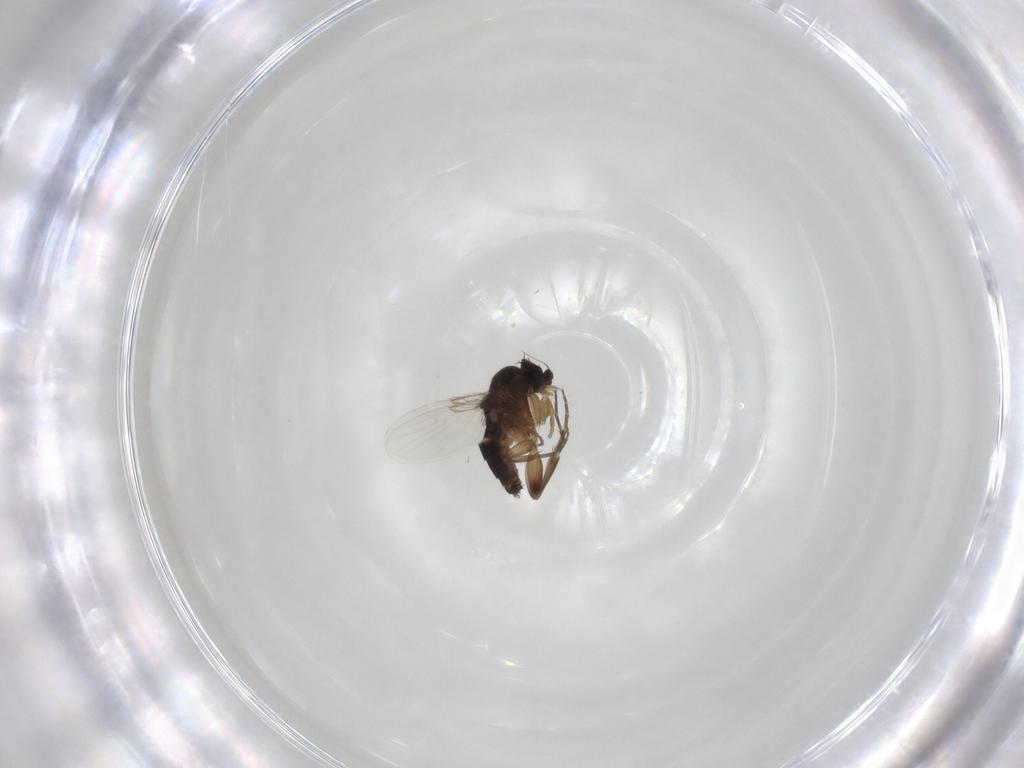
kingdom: Animalia
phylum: Arthropoda
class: Insecta
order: Diptera
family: Phoridae
